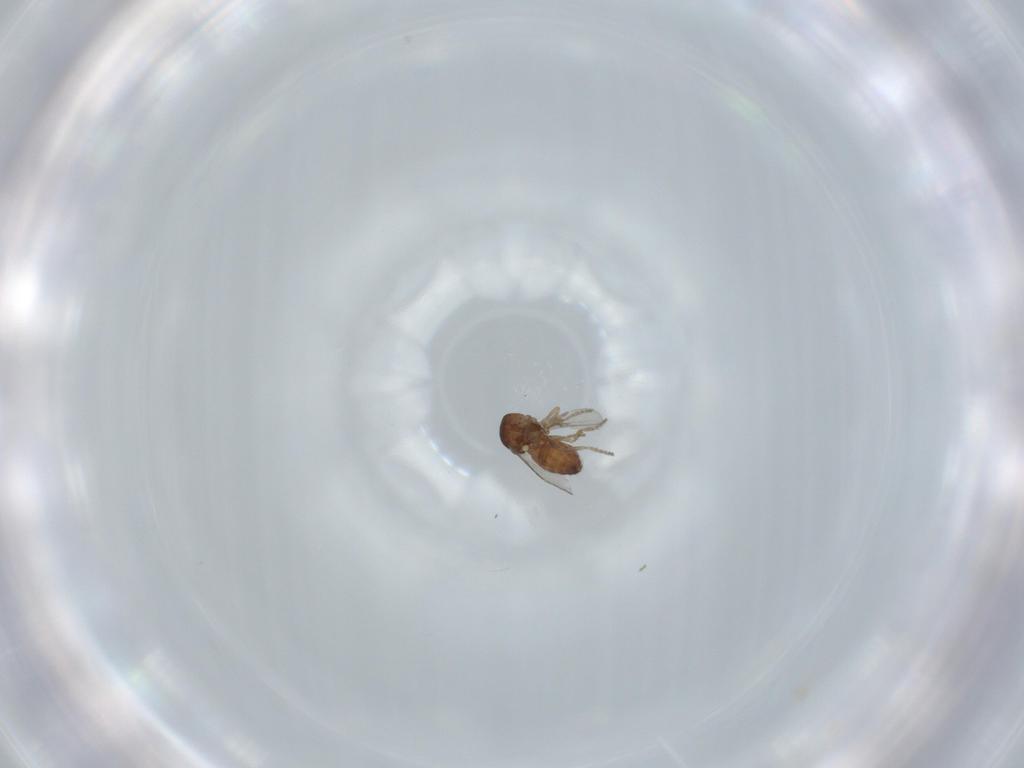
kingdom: Animalia
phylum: Arthropoda
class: Insecta
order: Diptera
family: Ceratopogonidae
